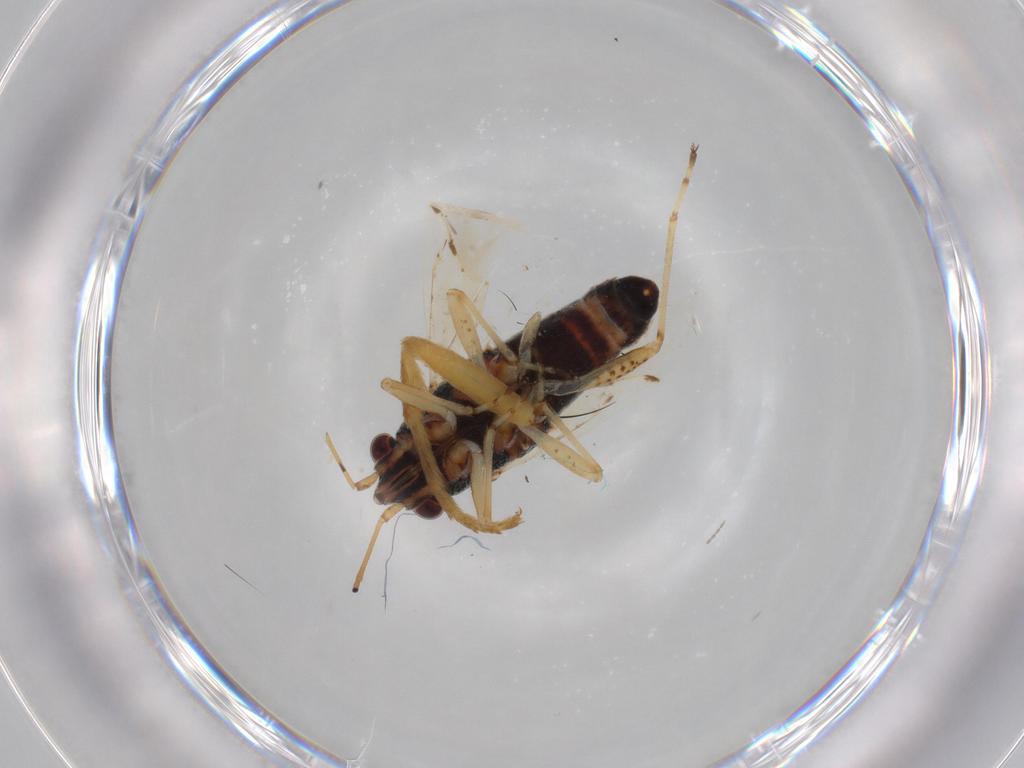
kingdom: Animalia
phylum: Arthropoda
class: Insecta
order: Hemiptera
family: Lygaeidae
